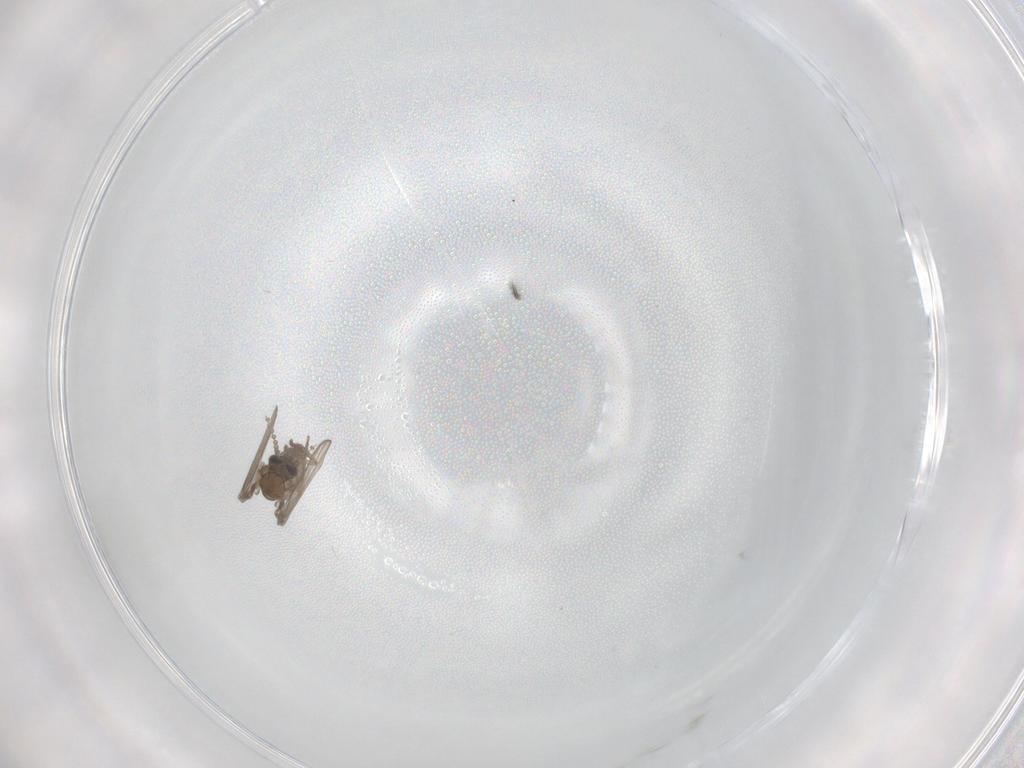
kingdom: Animalia
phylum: Arthropoda
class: Insecta
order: Diptera
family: Psychodidae
